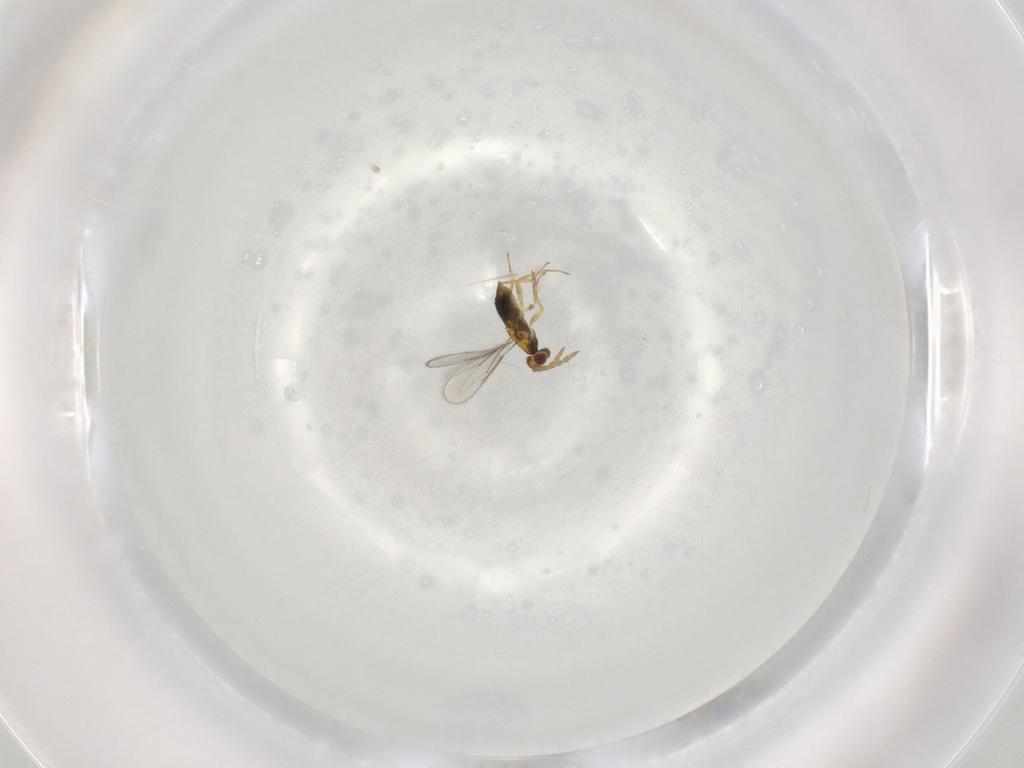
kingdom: Animalia
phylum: Arthropoda
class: Insecta
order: Hymenoptera
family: Aphelinidae
